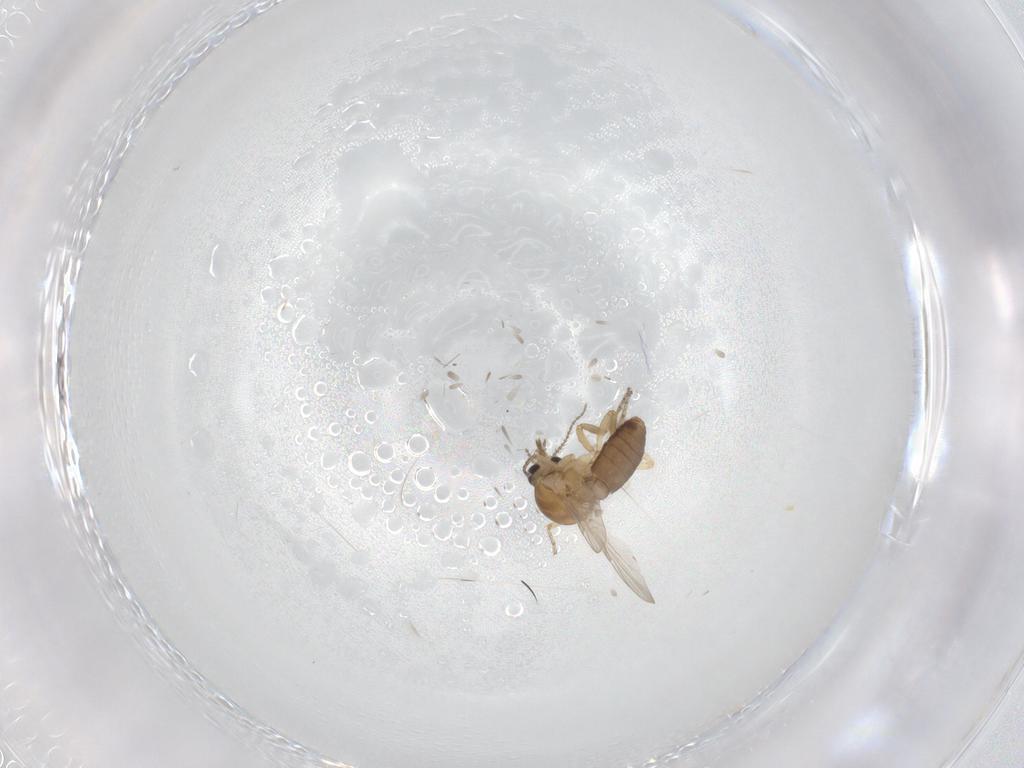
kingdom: Animalia
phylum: Arthropoda
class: Insecta
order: Diptera
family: Ceratopogonidae
